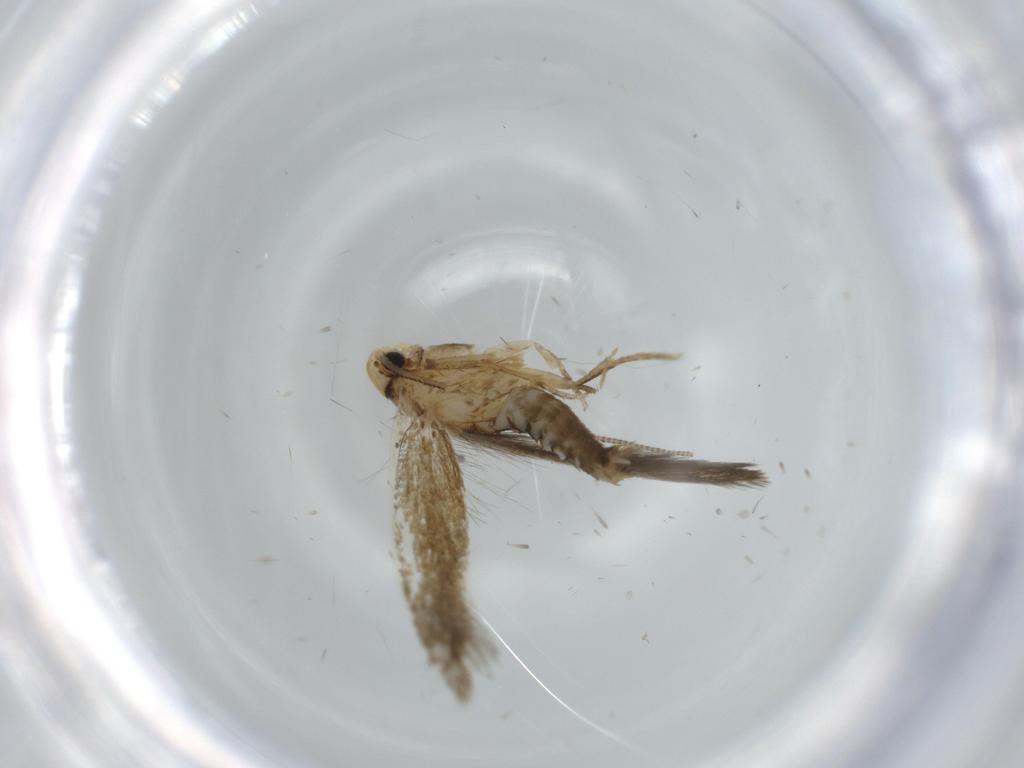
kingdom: Animalia
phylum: Arthropoda
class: Insecta
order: Lepidoptera
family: Tineidae
